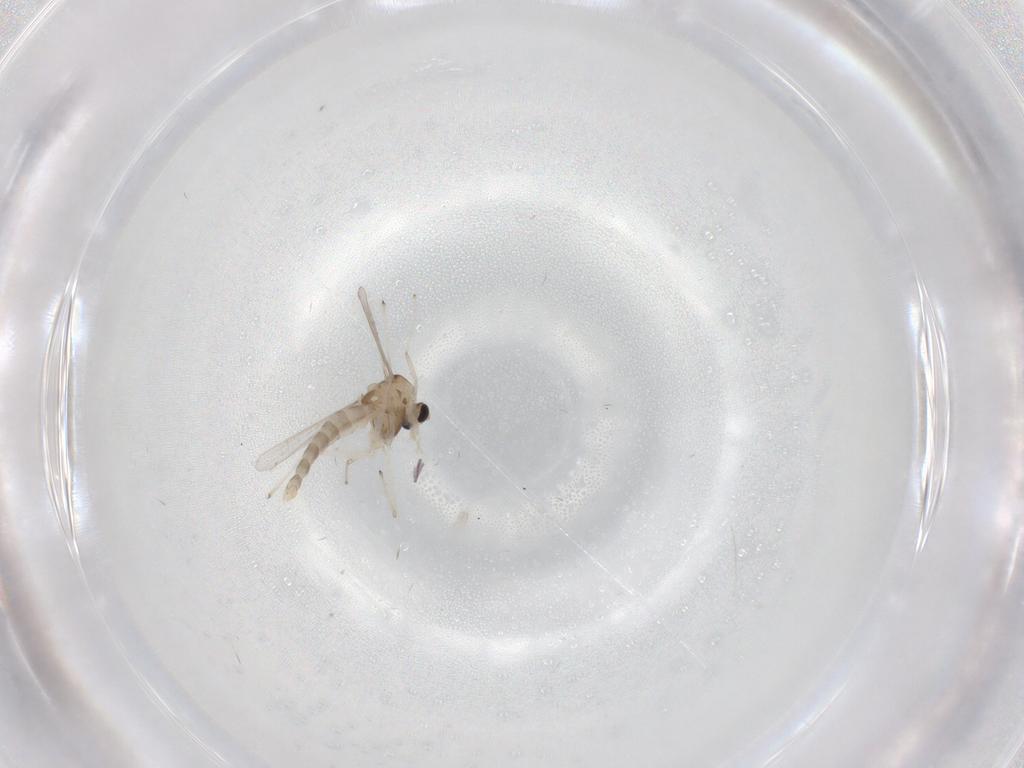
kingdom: Animalia
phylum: Arthropoda
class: Insecta
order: Diptera
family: Chironomidae
